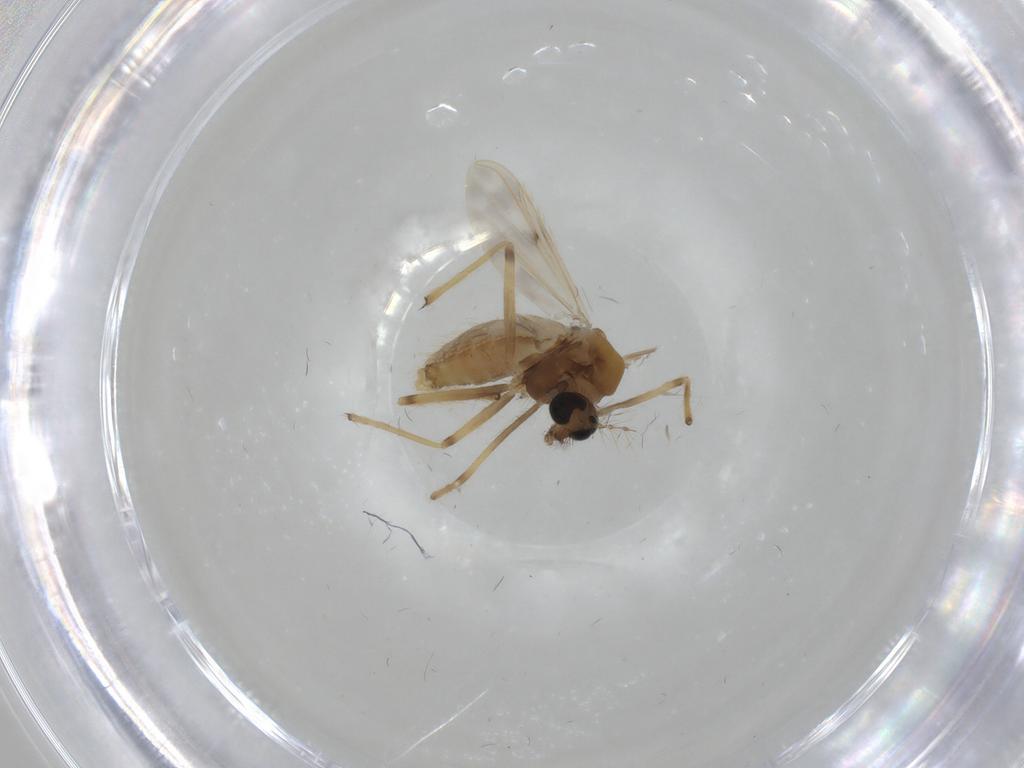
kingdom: Animalia
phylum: Arthropoda
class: Insecta
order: Diptera
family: Chironomidae
